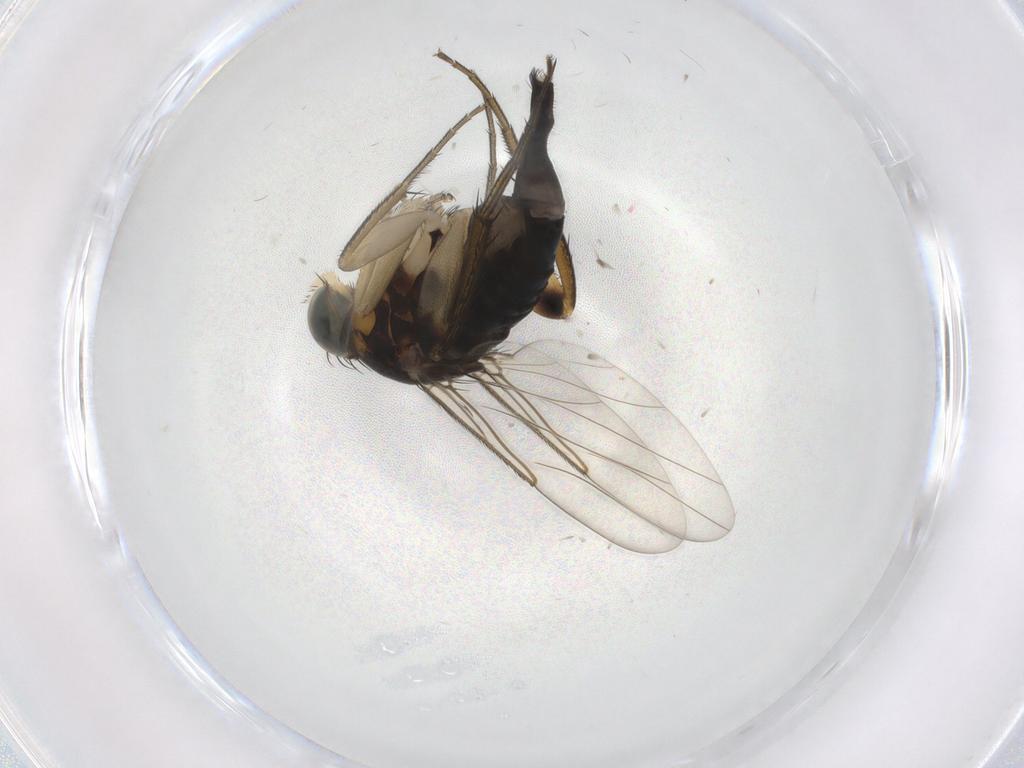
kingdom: Animalia
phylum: Arthropoda
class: Insecta
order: Diptera
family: Phoridae
